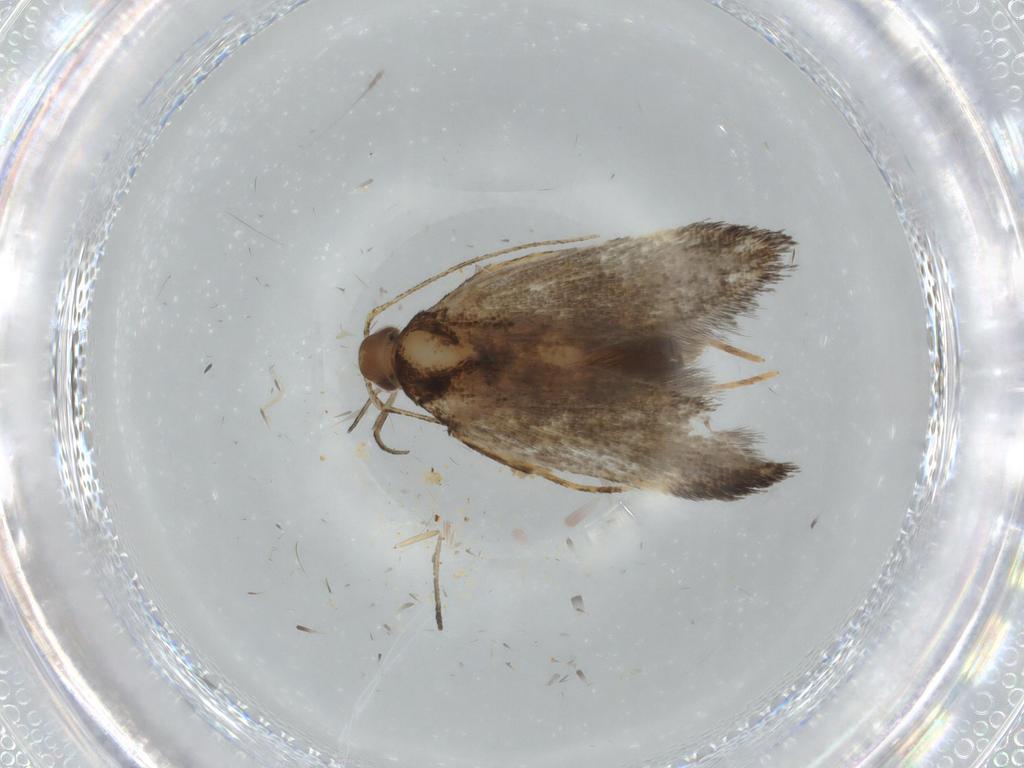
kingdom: Animalia
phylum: Arthropoda
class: Insecta
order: Lepidoptera
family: Cosmopterigidae
